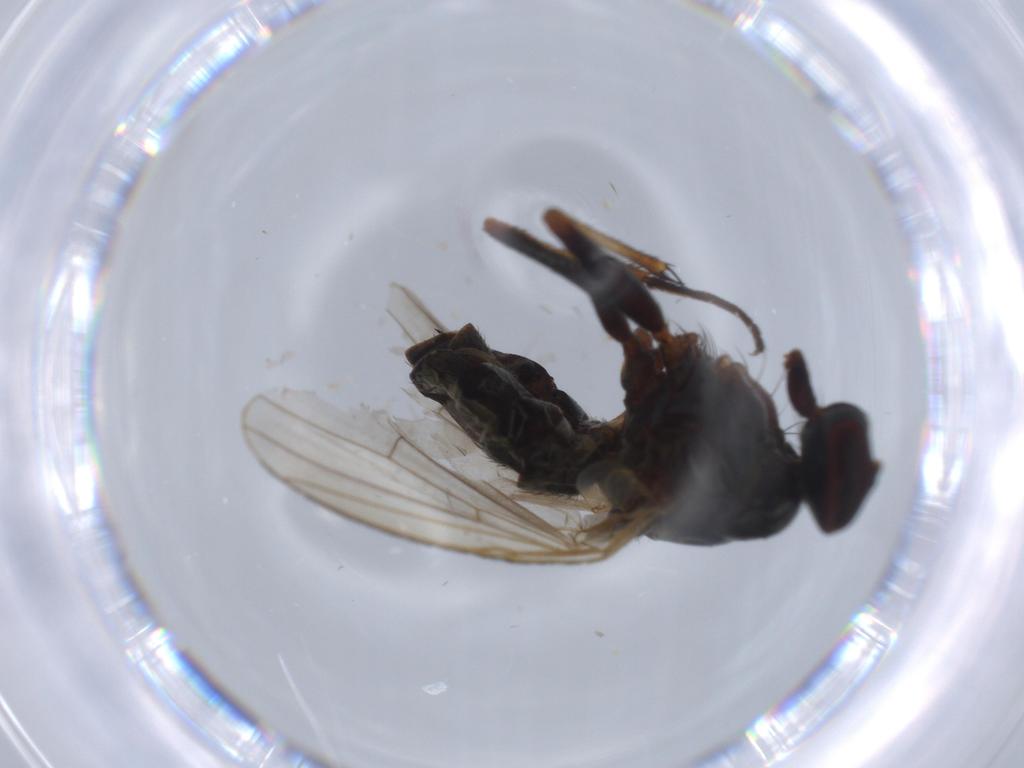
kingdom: Animalia
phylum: Arthropoda
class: Insecta
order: Diptera
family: Ceratopogonidae
